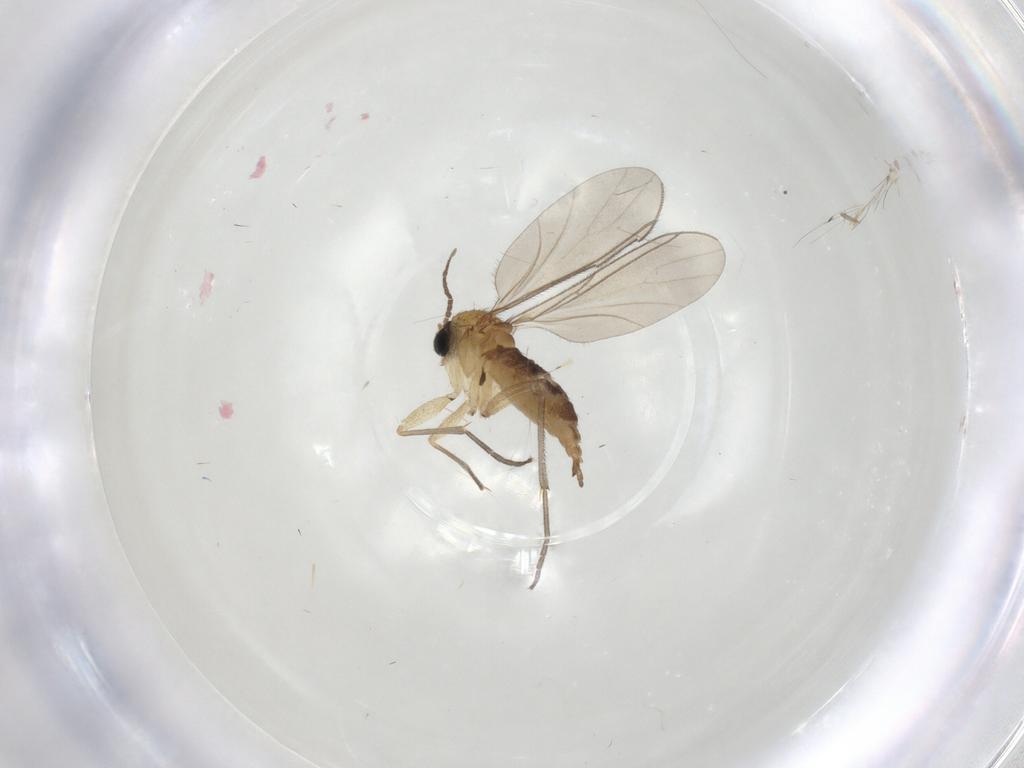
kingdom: Animalia
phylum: Arthropoda
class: Insecta
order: Diptera
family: Sciaridae
